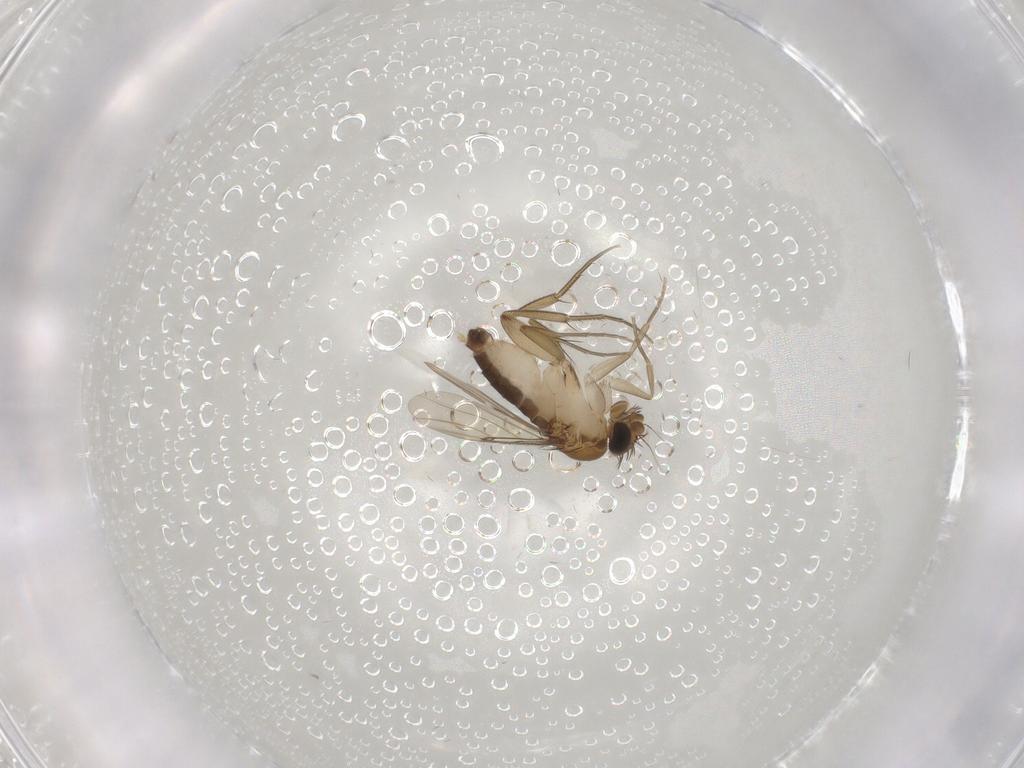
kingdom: Animalia
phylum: Arthropoda
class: Insecta
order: Diptera
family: Phoridae
